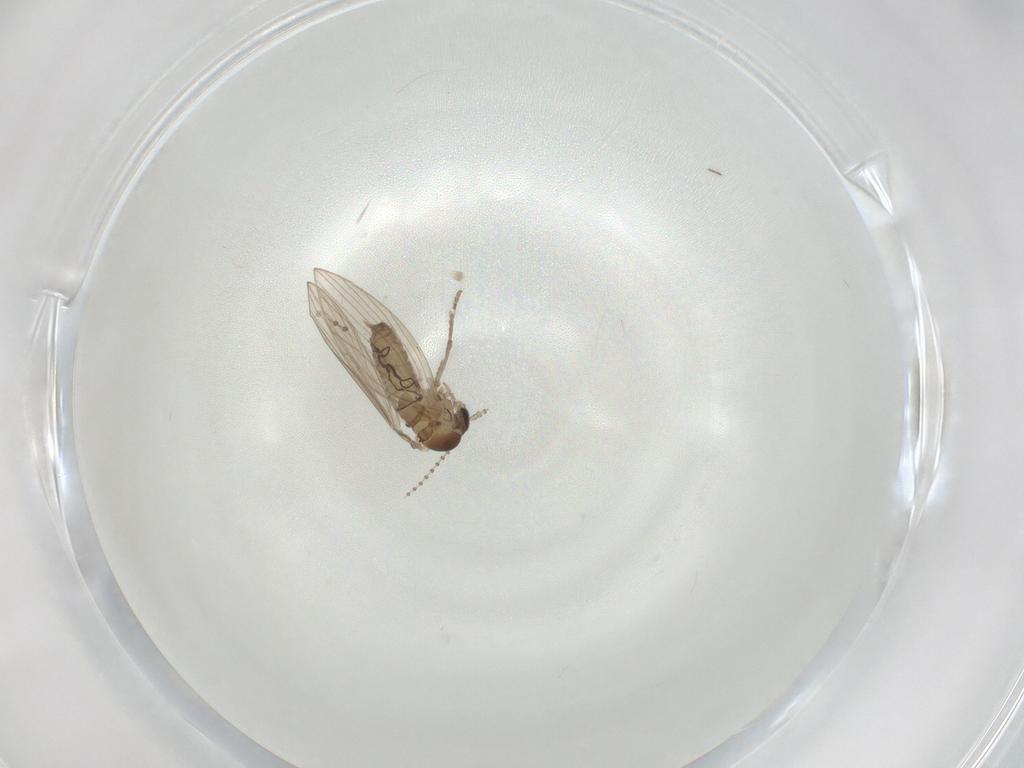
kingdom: Animalia
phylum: Arthropoda
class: Insecta
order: Diptera
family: Psychodidae
